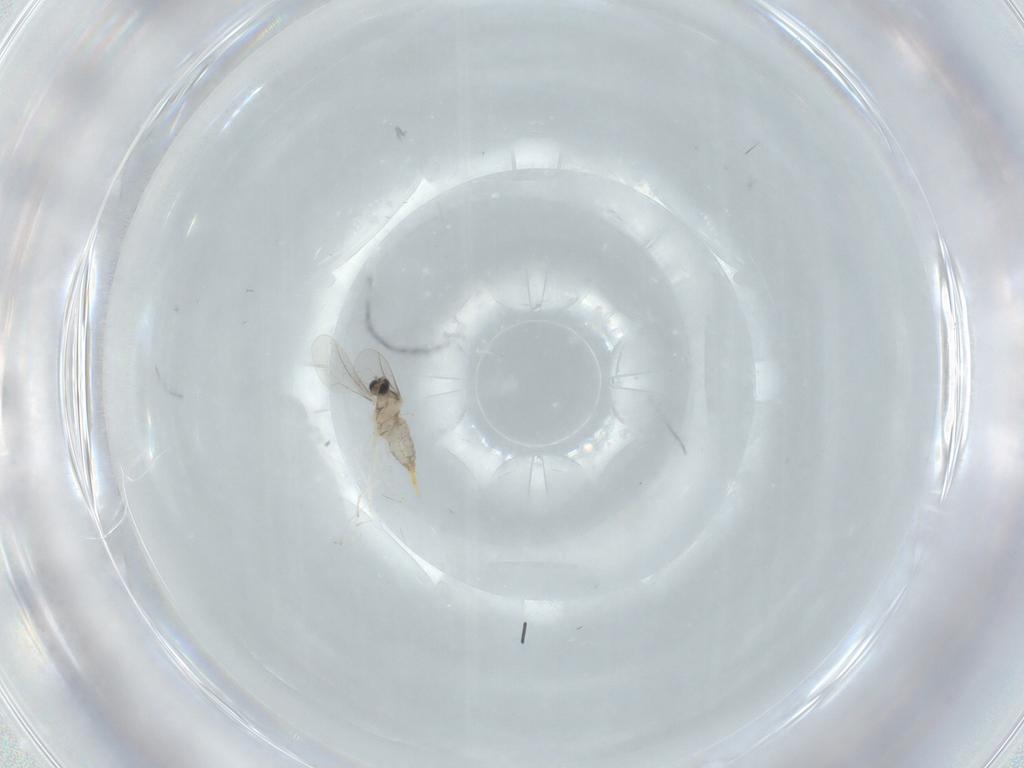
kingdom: Animalia
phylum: Arthropoda
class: Insecta
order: Diptera
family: Cecidomyiidae
